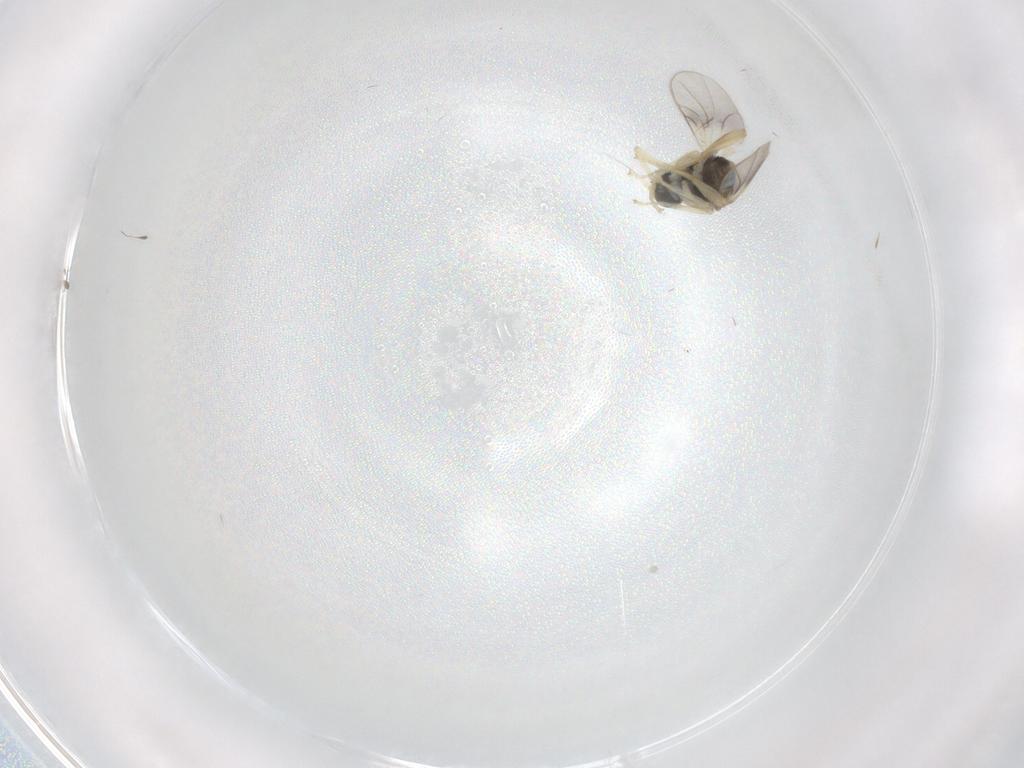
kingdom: Animalia
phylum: Arthropoda
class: Insecta
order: Diptera
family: Hybotidae
